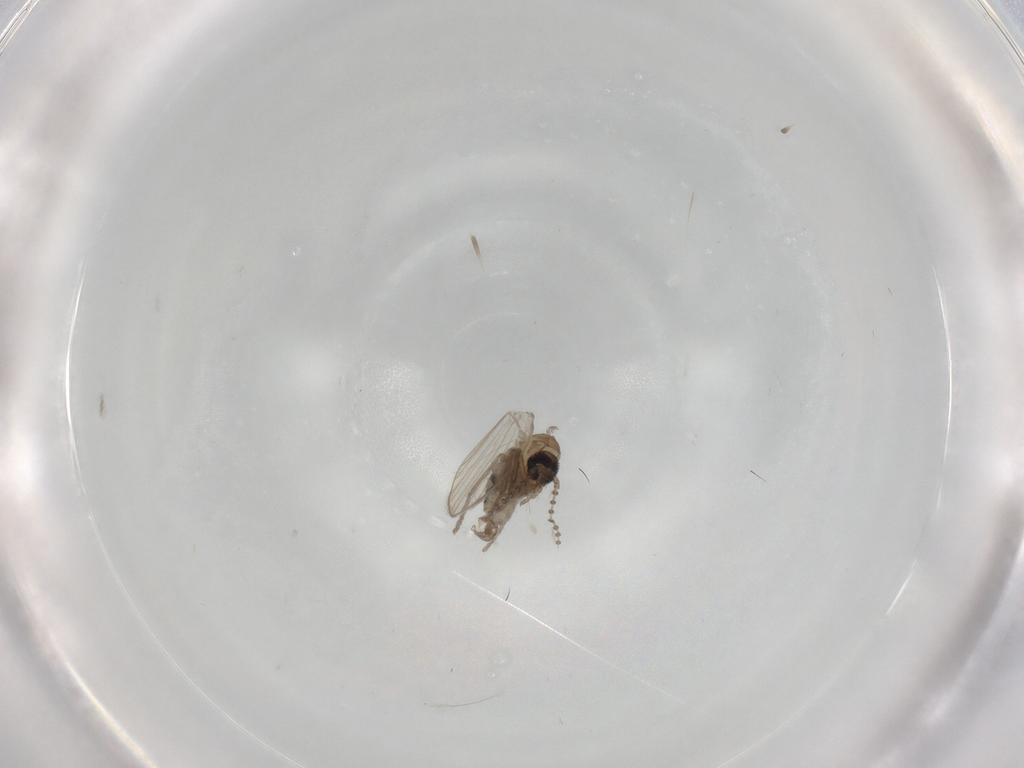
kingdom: Animalia
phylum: Arthropoda
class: Insecta
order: Diptera
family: Psychodidae
